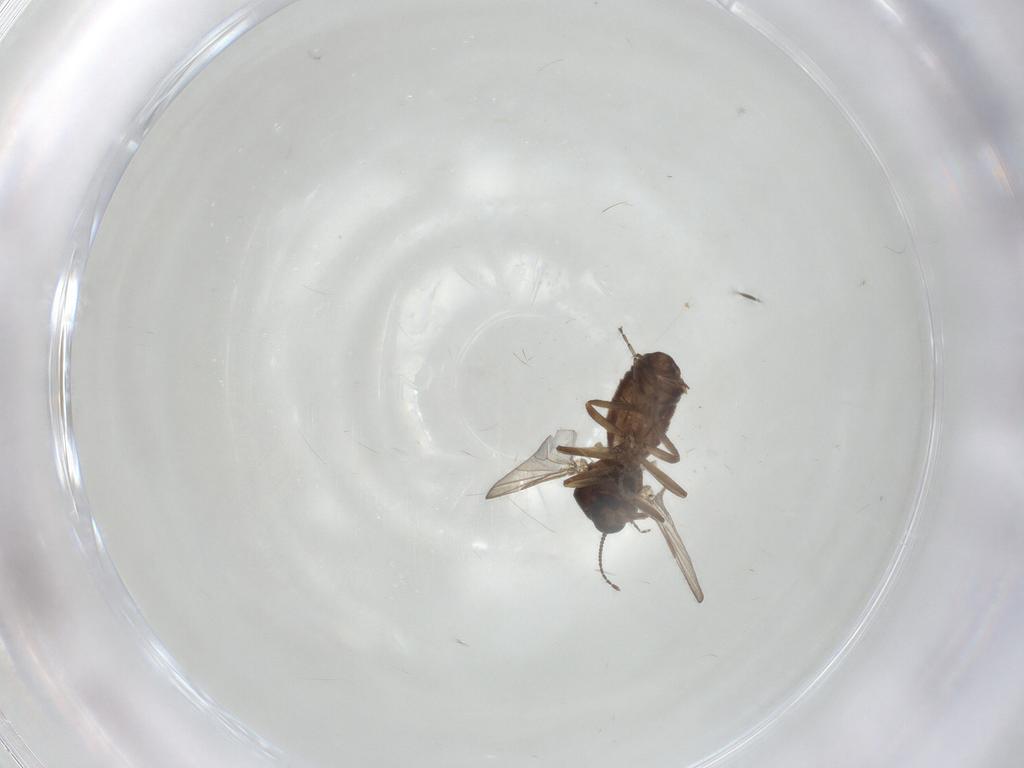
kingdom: Animalia
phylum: Arthropoda
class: Insecta
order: Diptera
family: Ceratopogonidae
